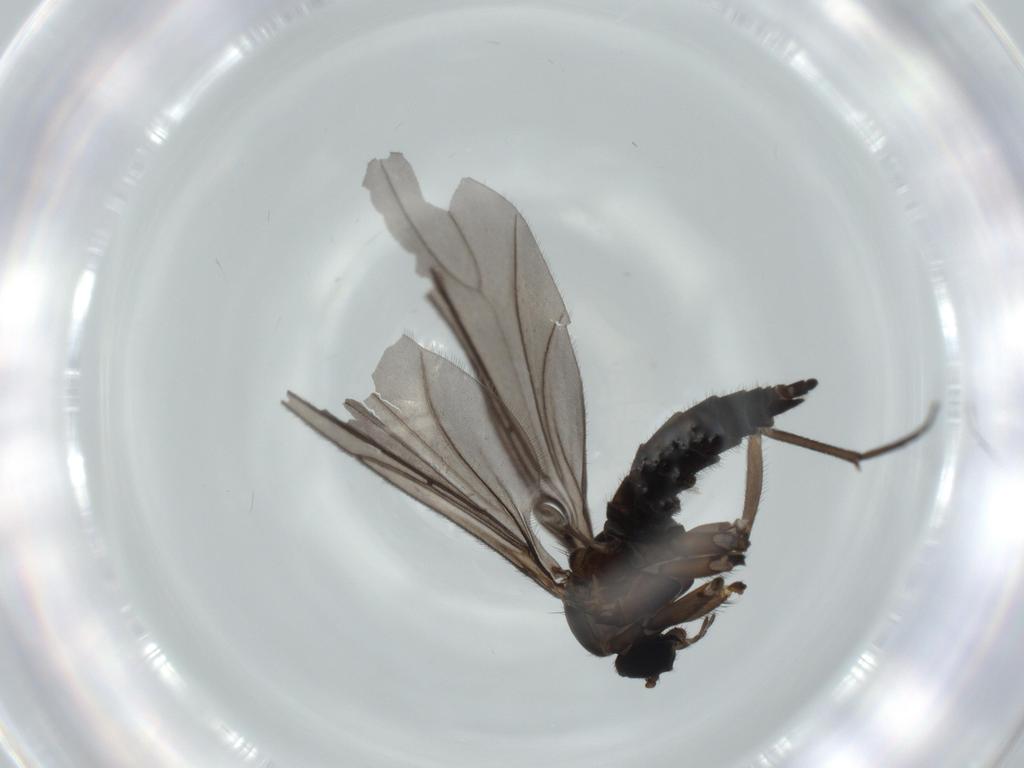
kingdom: Animalia
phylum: Arthropoda
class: Insecta
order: Diptera
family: Sciaridae
